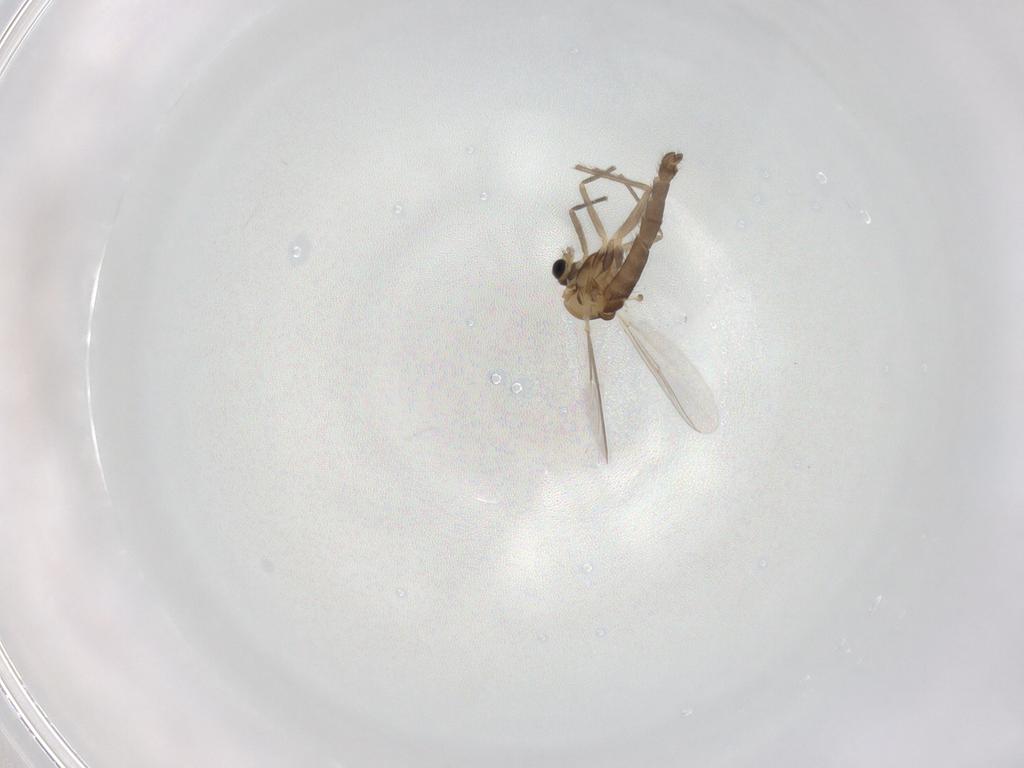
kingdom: Animalia
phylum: Arthropoda
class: Insecta
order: Diptera
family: Chironomidae
